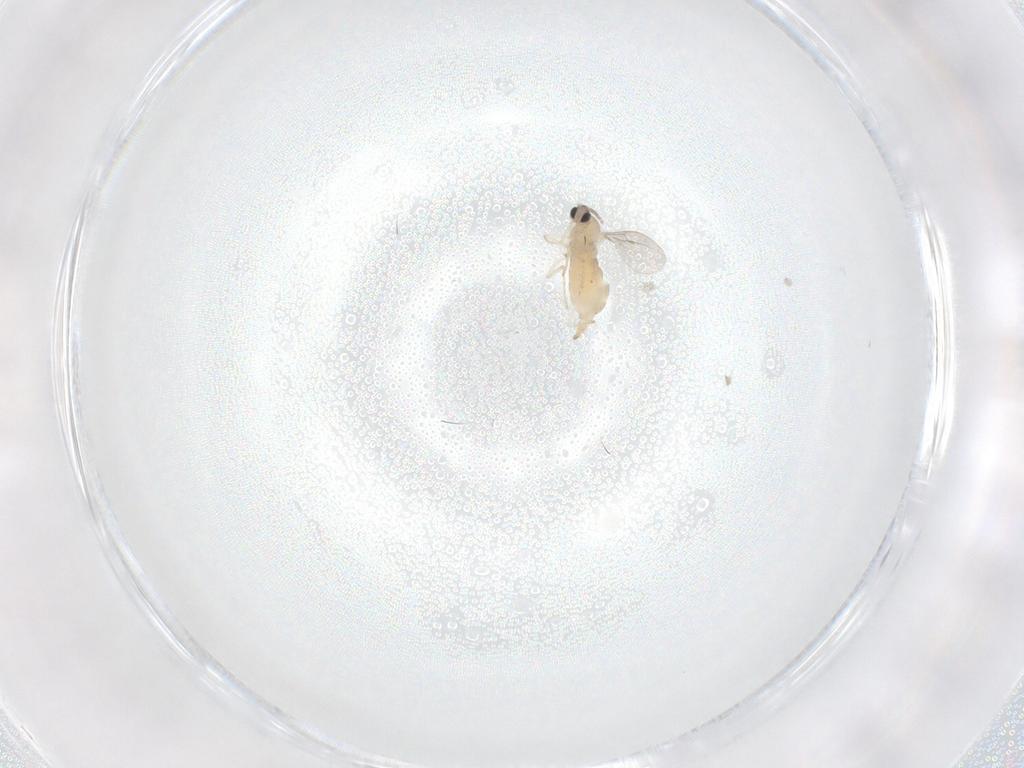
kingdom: Animalia
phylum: Arthropoda
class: Insecta
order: Diptera
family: Cecidomyiidae
